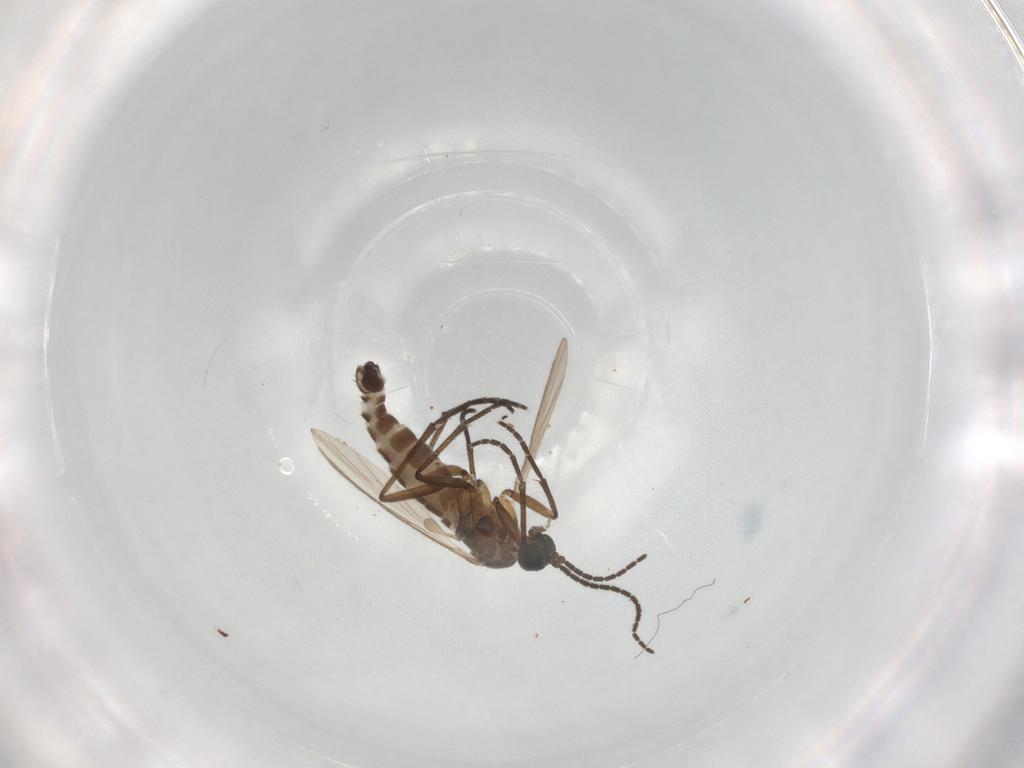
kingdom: Animalia
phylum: Arthropoda
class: Insecta
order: Diptera
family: Sciaridae
